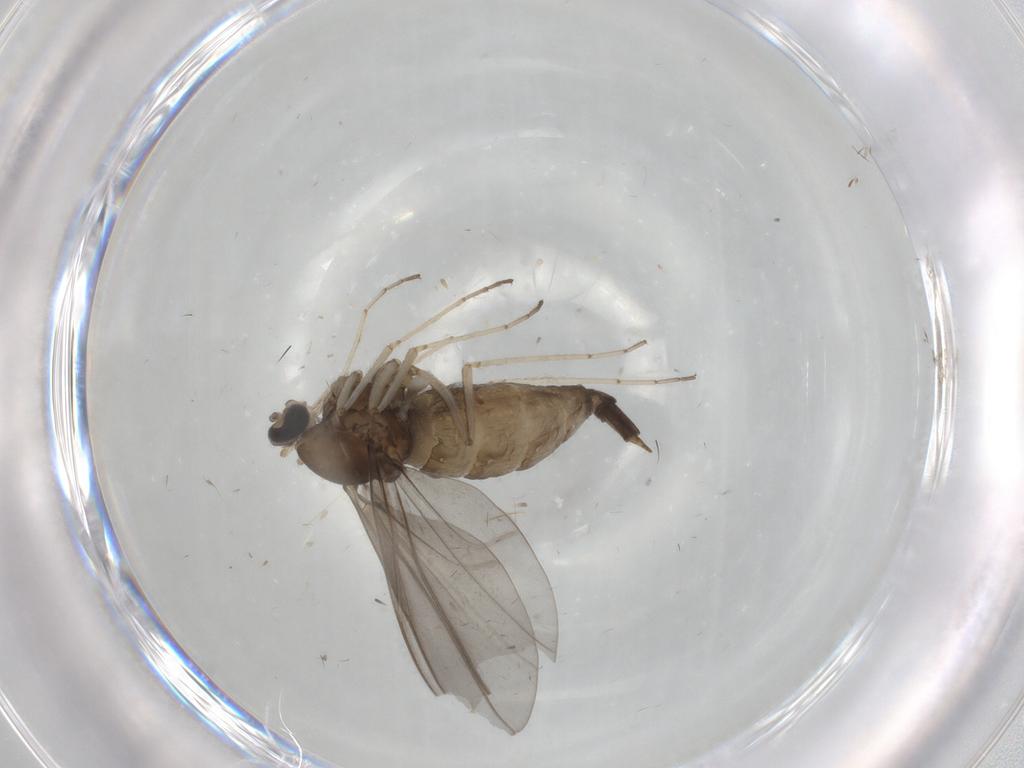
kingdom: Animalia
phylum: Arthropoda
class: Insecta
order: Diptera
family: Cecidomyiidae
